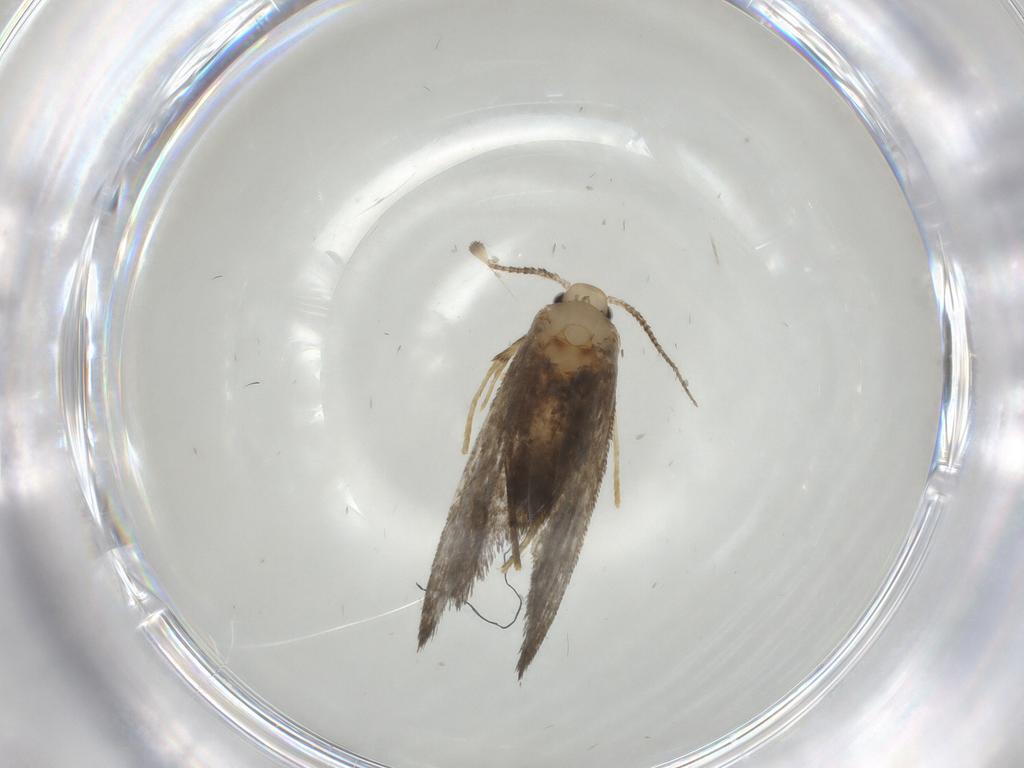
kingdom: Animalia
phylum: Arthropoda
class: Insecta
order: Lepidoptera
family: Psychidae
